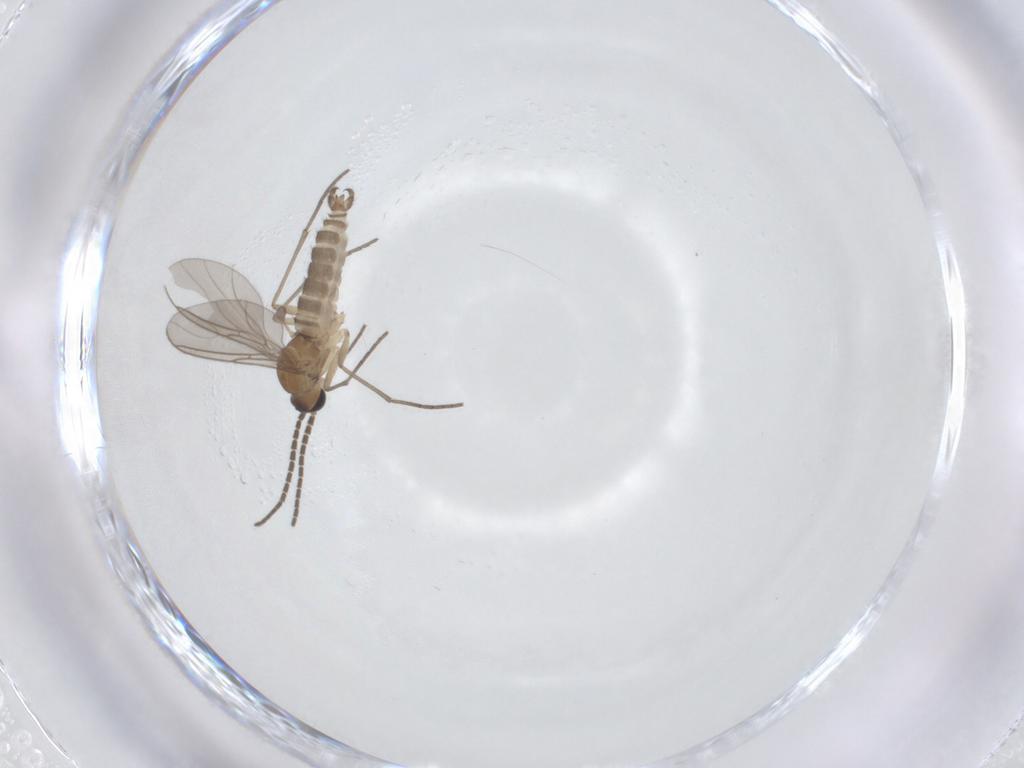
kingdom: Animalia
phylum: Arthropoda
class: Insecta
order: Diptera
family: Sciaridae
